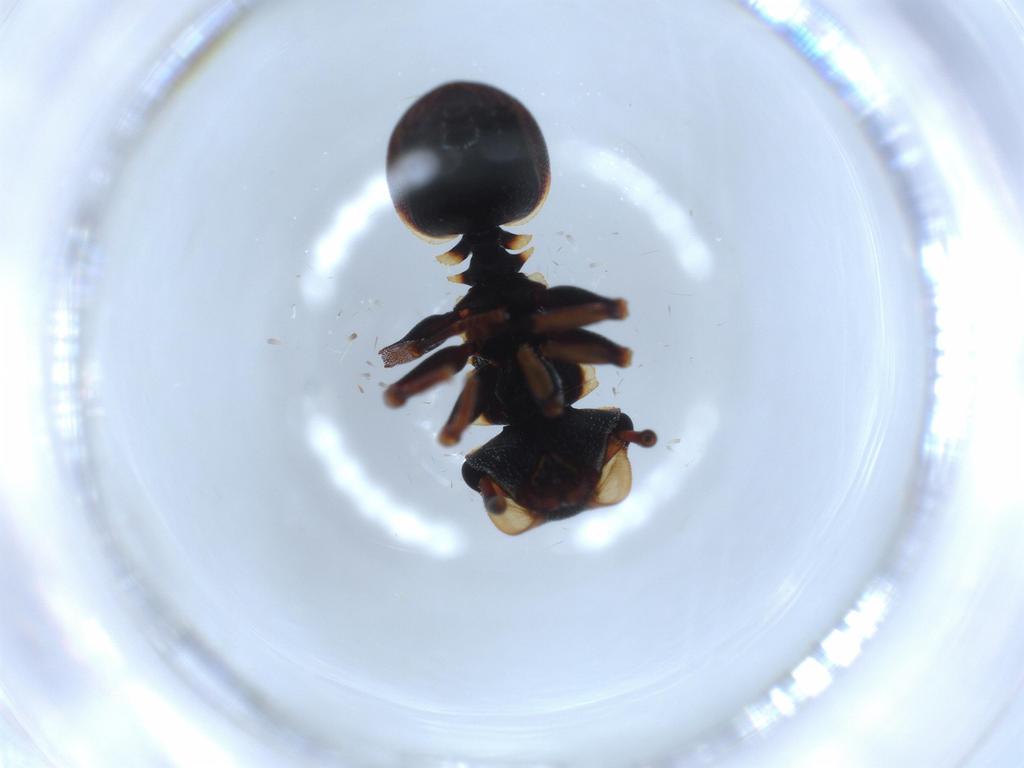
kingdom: Animalia
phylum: Arthropoda
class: Insecta
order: Hymenoptera
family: Formicidae
